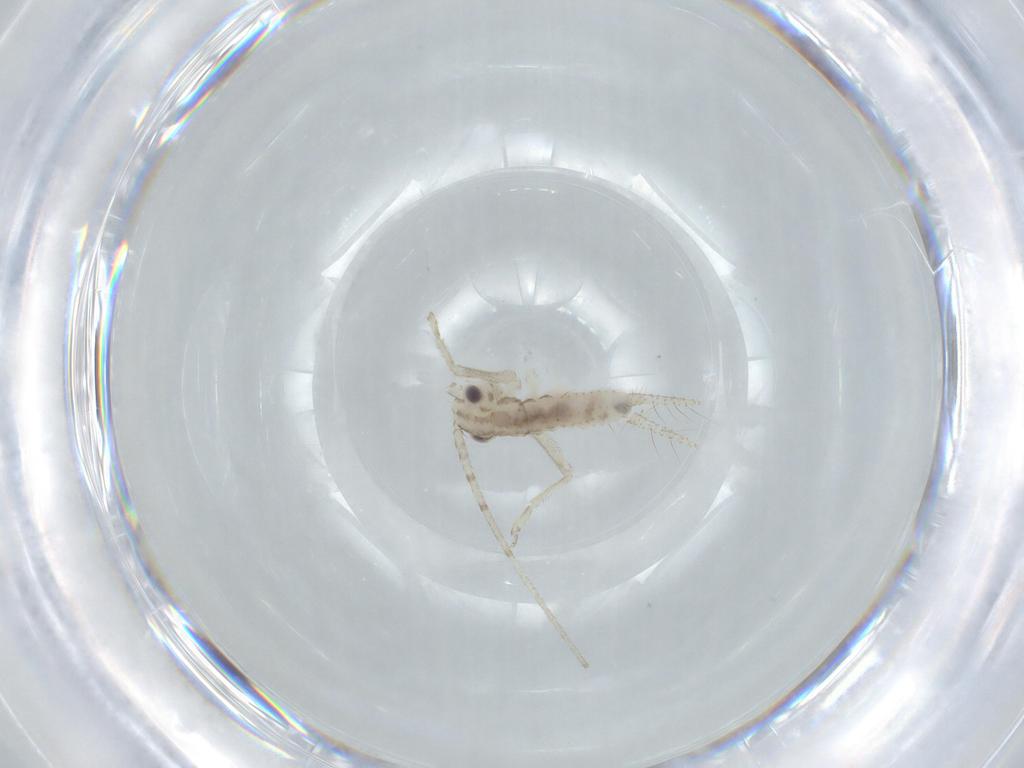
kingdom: Animalia
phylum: Arthropoda
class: Insecta
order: Orthoptera
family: Trigonidiidae
